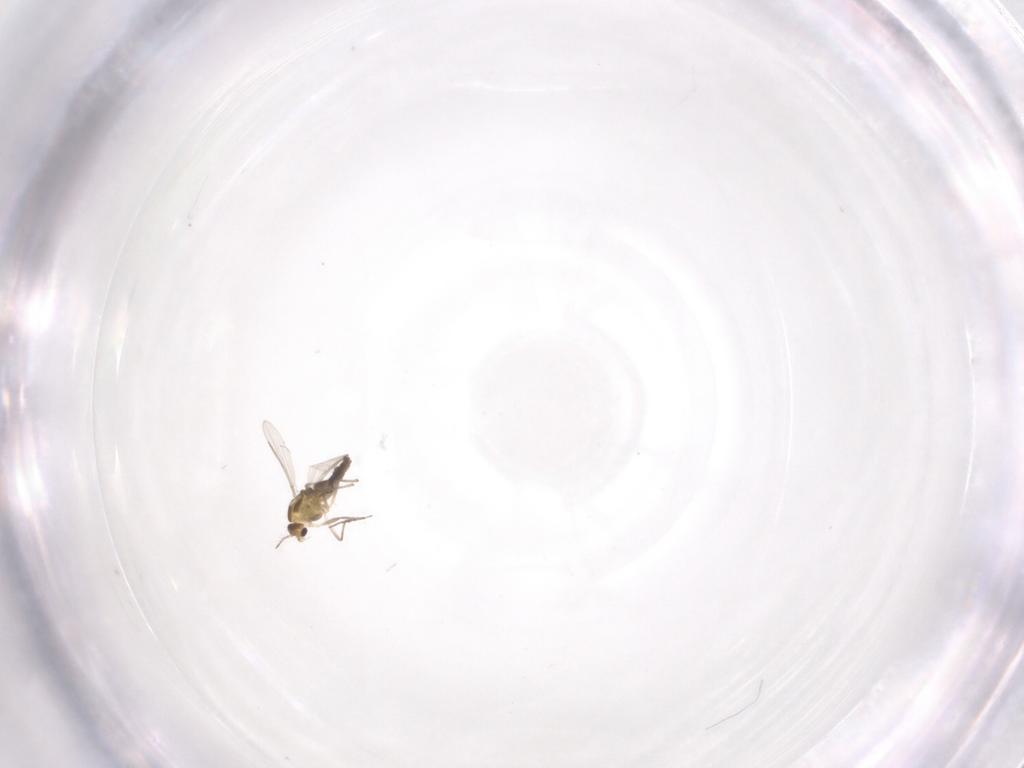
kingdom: Animalia
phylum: Arthropoda
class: Insecta
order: Diptera
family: Chironomidae
